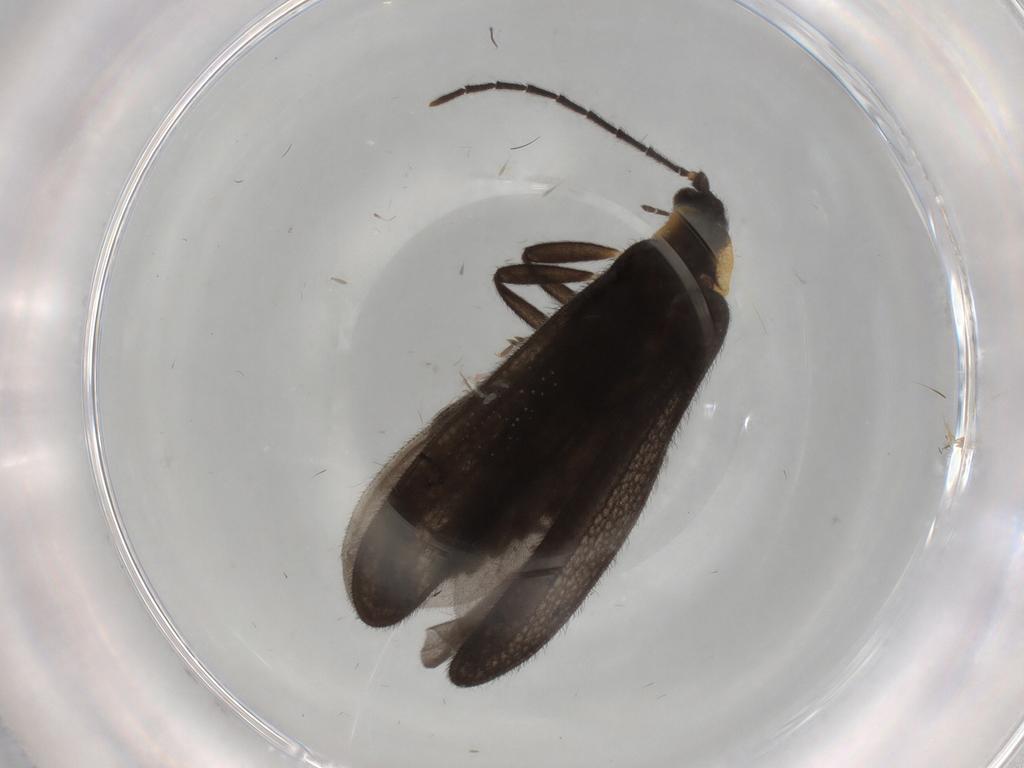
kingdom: Animalia
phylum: Arthropoda
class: Insecta
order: Coleoptera
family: Lycidae
